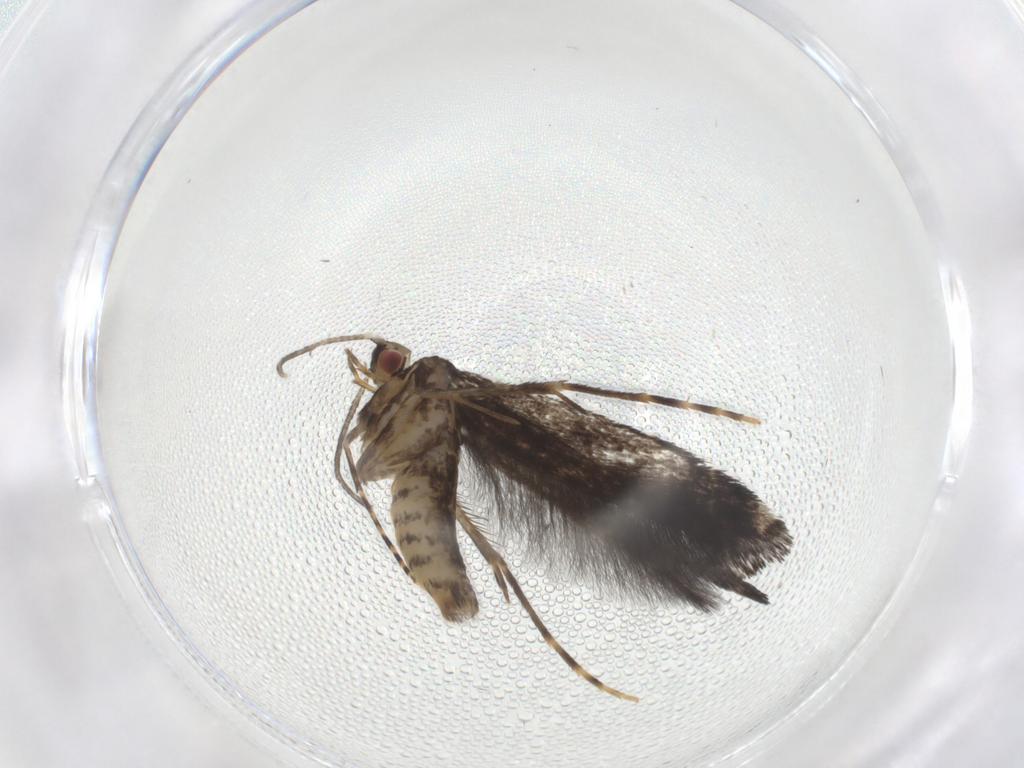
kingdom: Animalia
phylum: Arthropoda
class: Insecta
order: Lepidoptera
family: Gracillariidae
